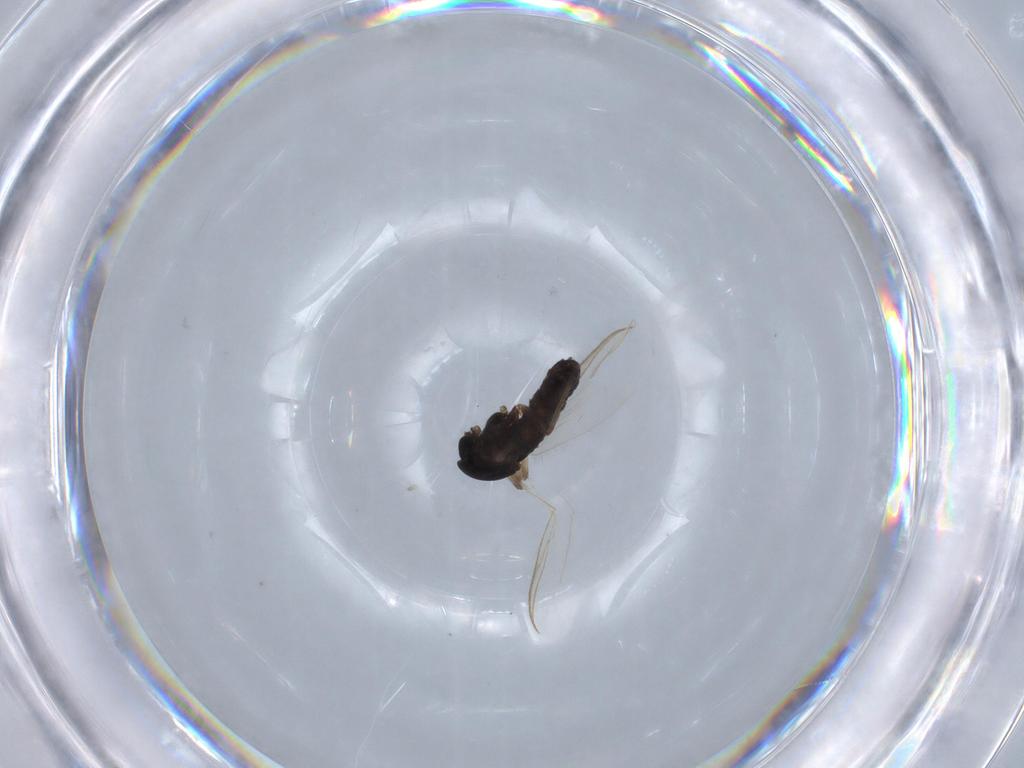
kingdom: Animalia
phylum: Arthropoda
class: Insecta
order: Diptera
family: Chironomidae
